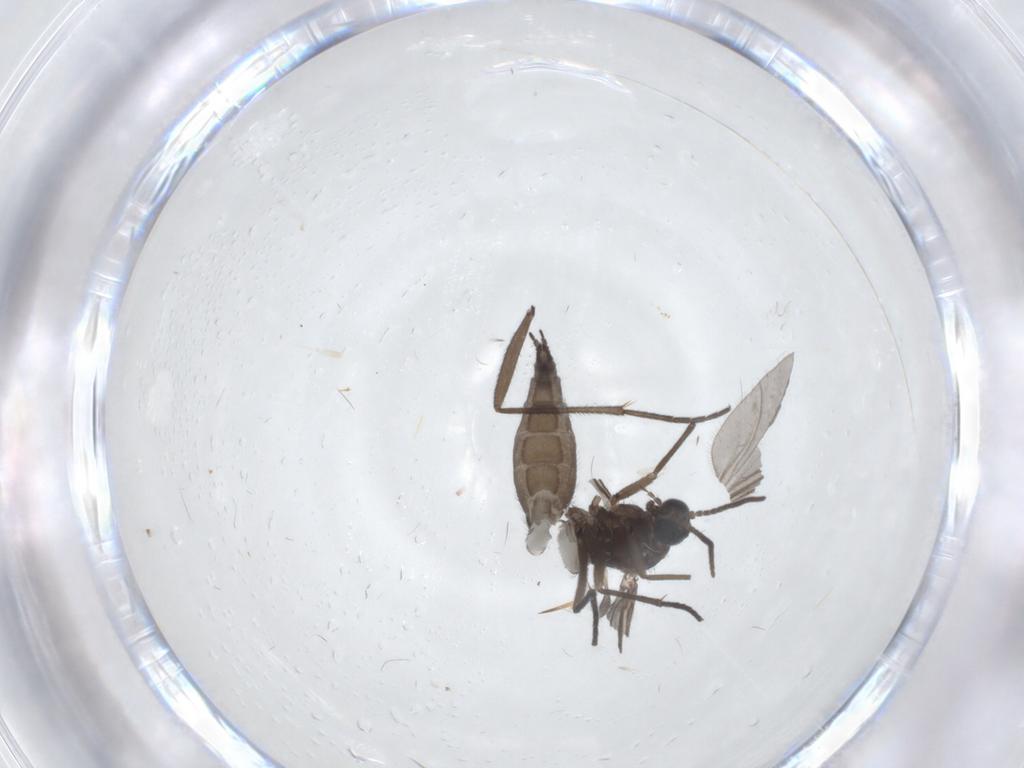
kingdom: Animalia
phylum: Arthropoda
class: Insecta
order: Diptera
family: Sciaridae
